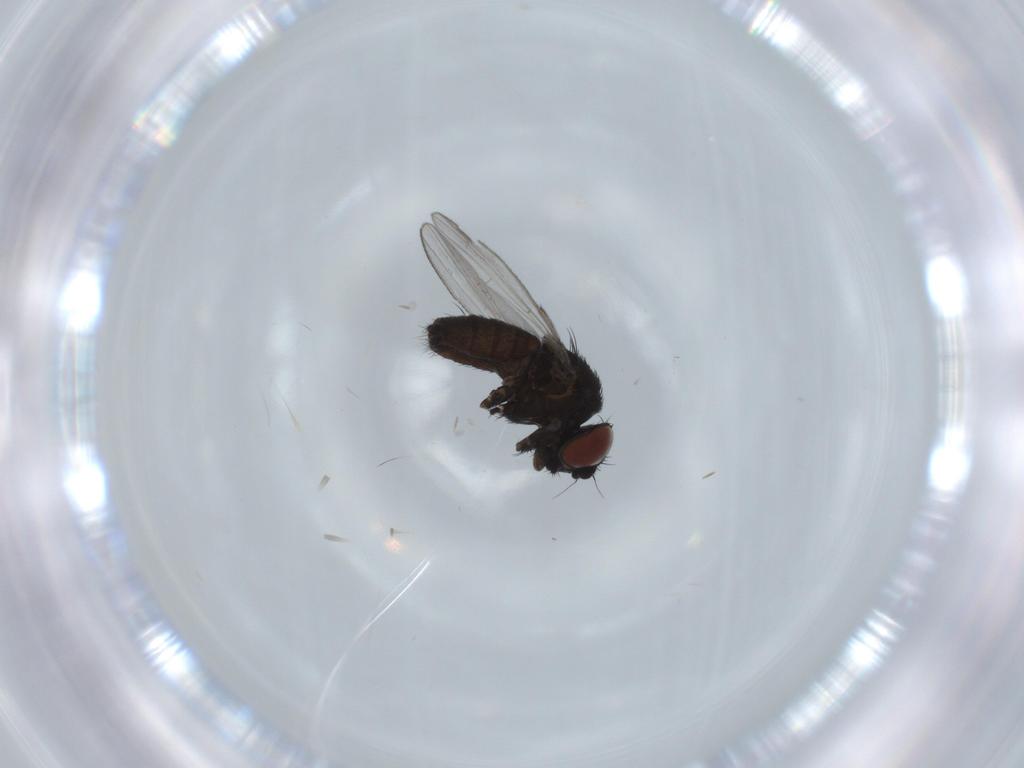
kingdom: Animalia
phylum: Arthropoda
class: Insecta
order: Diptera
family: Milichiidae
